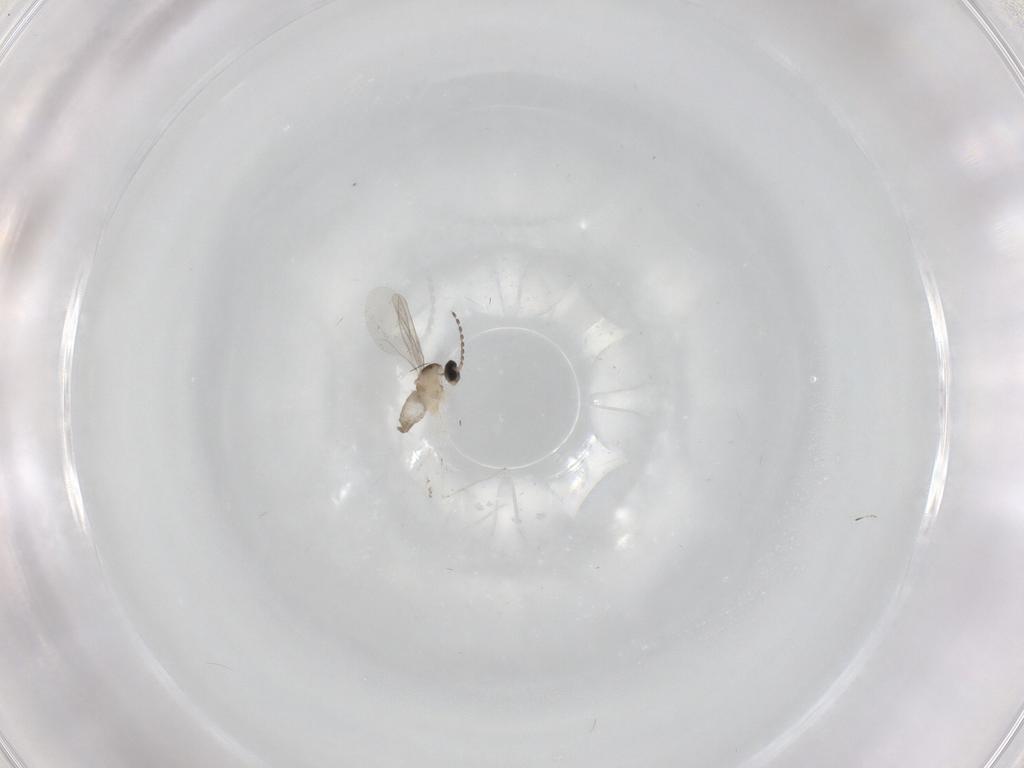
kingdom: Animalia
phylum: Arthropoda
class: Insecta
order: Diptera
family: Cecidomyiidae
